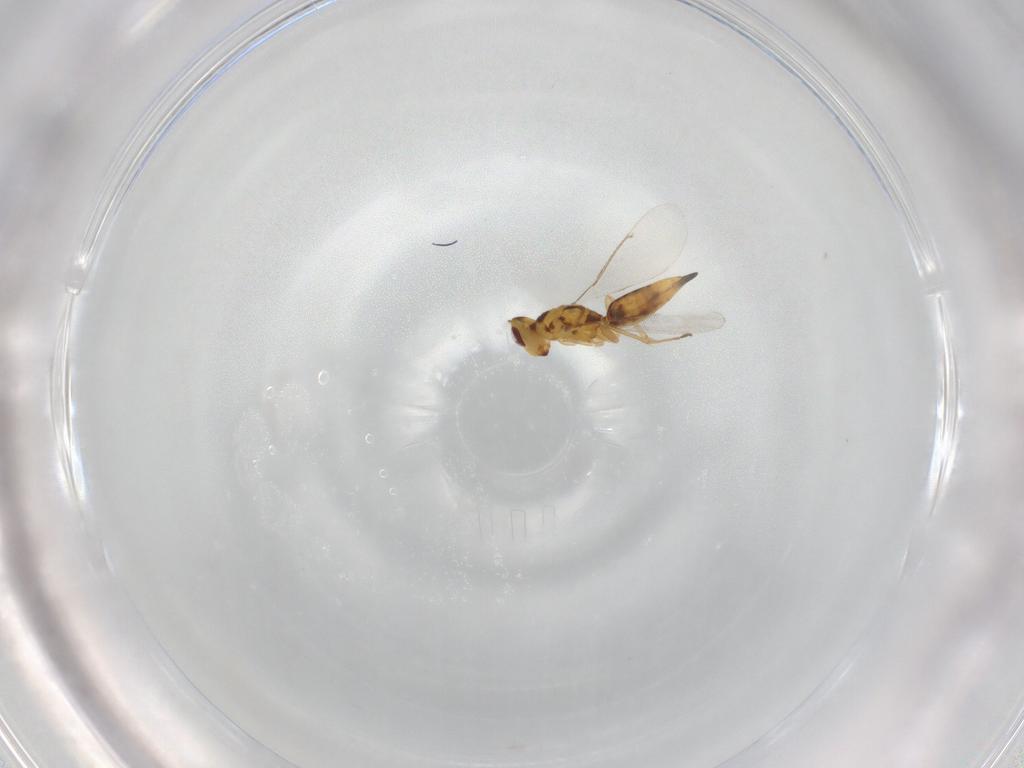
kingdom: Animalia
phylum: Arthropoda
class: Insecta
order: Hymenoptera
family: Eulophidae
